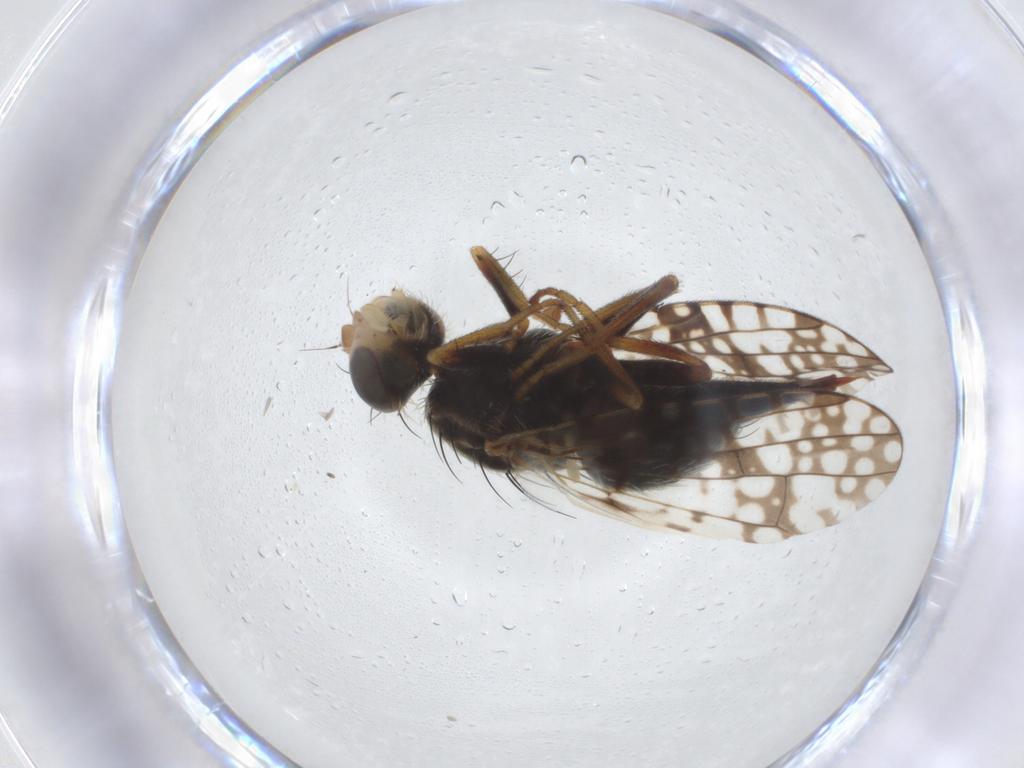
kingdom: Animalia
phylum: Arthropoda
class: Insecta
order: Diptera
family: Tephritidae
